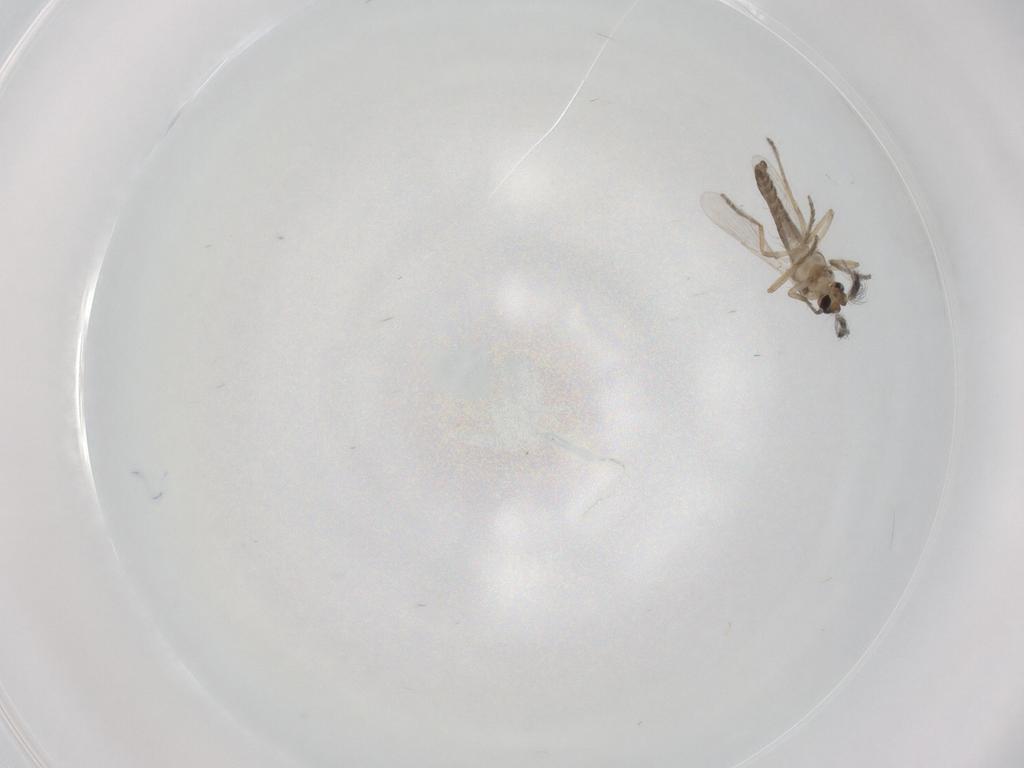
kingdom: Animalia
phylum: Arthropoda
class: Insecta
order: Diptera
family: Ceratopogonidae
